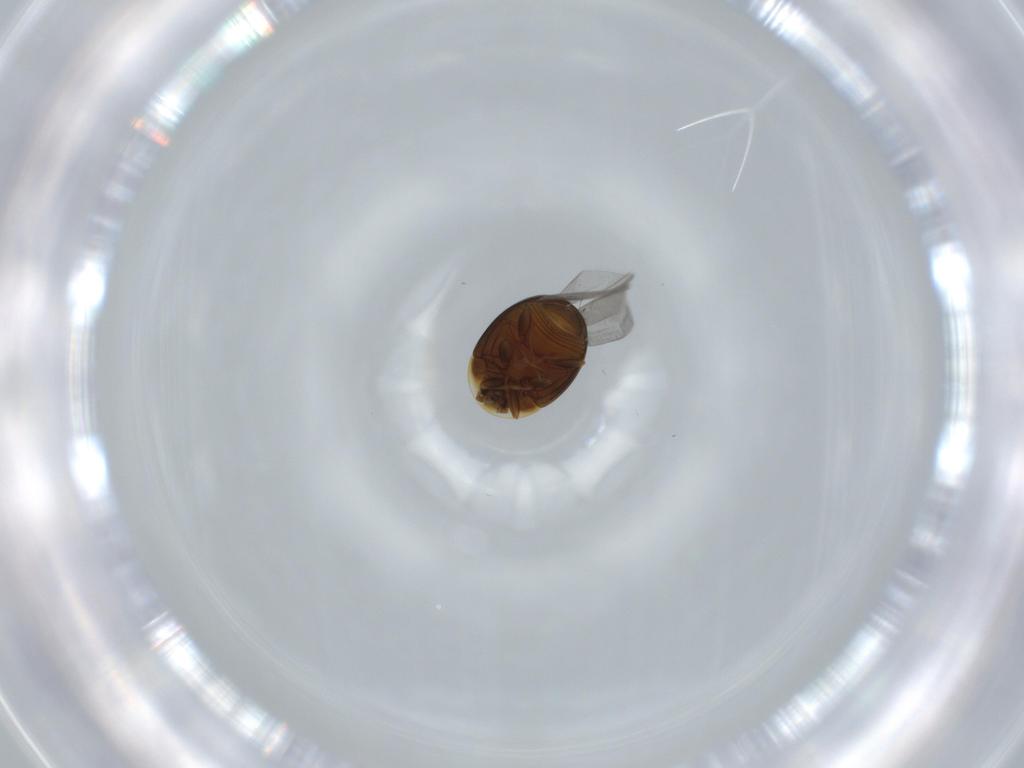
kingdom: Animalia
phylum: Arthropoda
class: Insecta
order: Coleoptera
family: Corylophidae
